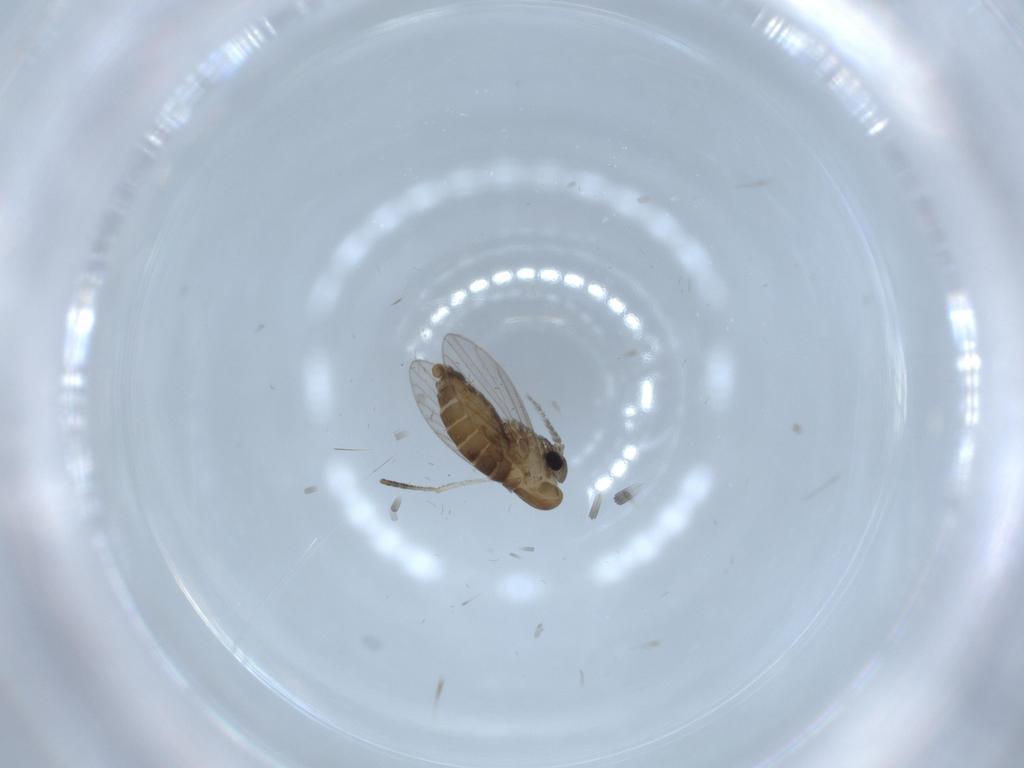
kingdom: Animalia
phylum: Arthropoda
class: Insecta
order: Diptera
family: Psychodidae
